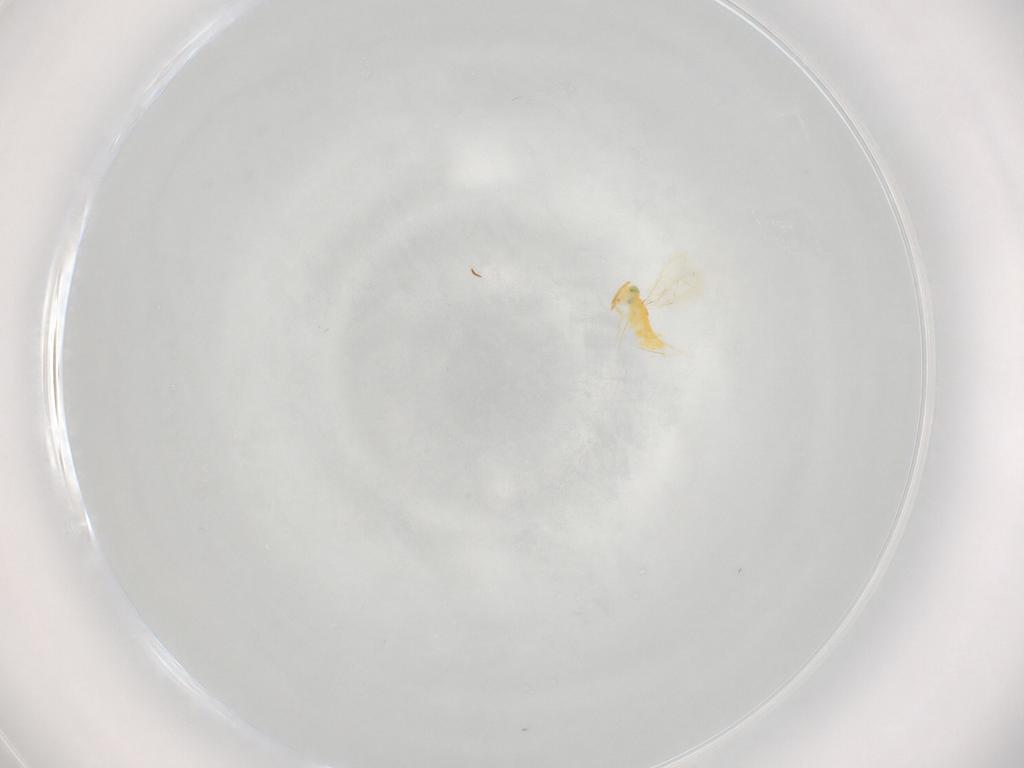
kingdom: Animalia
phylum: Arthropoda
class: Insecta
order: Hymenoptera
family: Aphelinidae
